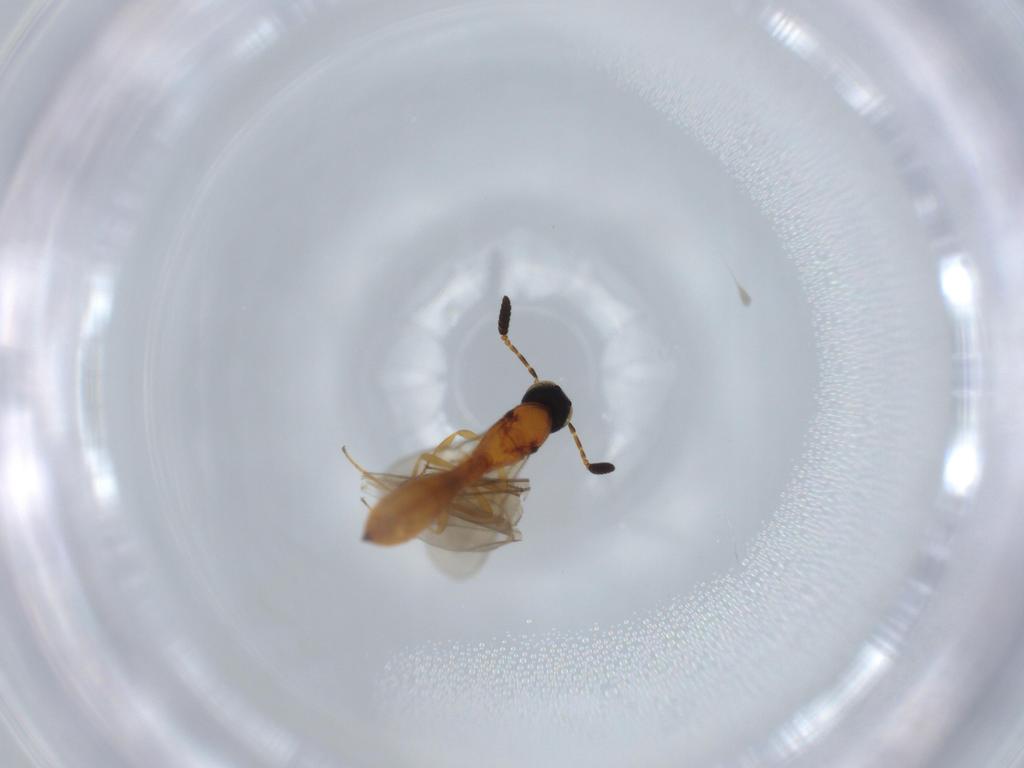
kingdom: Animalia
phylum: Arthropoda
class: Insecta
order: Hymenoptera
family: Scelionidae
